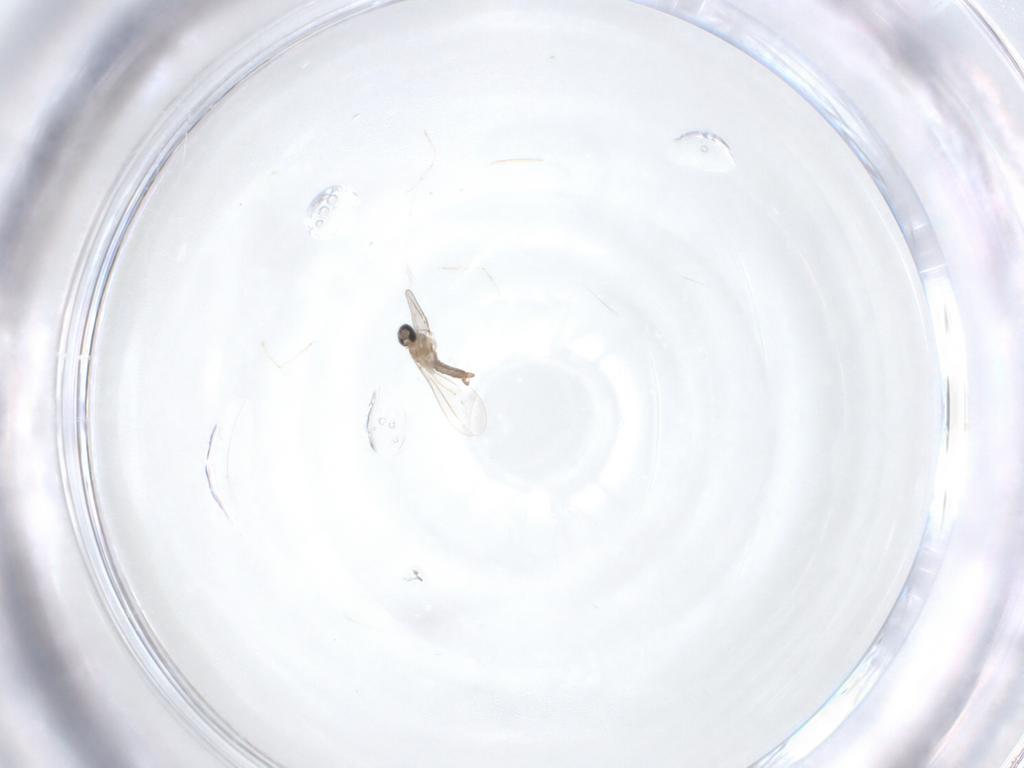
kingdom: Animalia
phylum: Arthropoda
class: Insecta
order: Diptera
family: Cecidomyiidae
